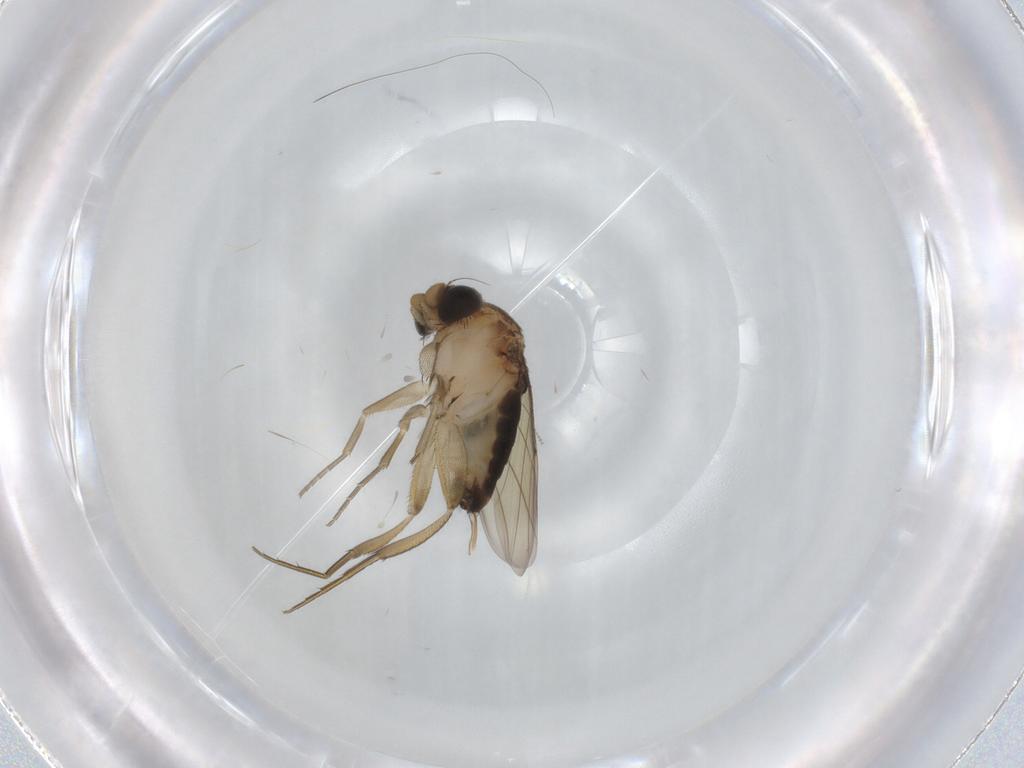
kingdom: Animalia
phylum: Arthropoda
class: Insecta
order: Diptera
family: Phoridae
